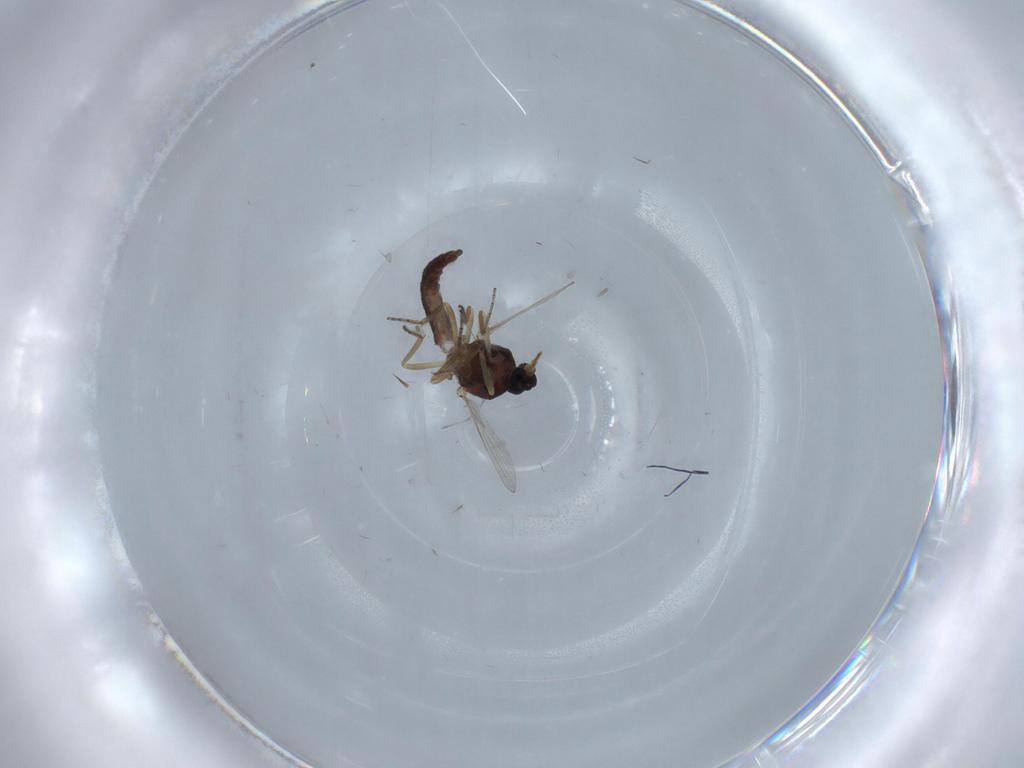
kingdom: Animalia
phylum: Arthropoda
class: Insecta
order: Diptera
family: Ceratopogonidae
